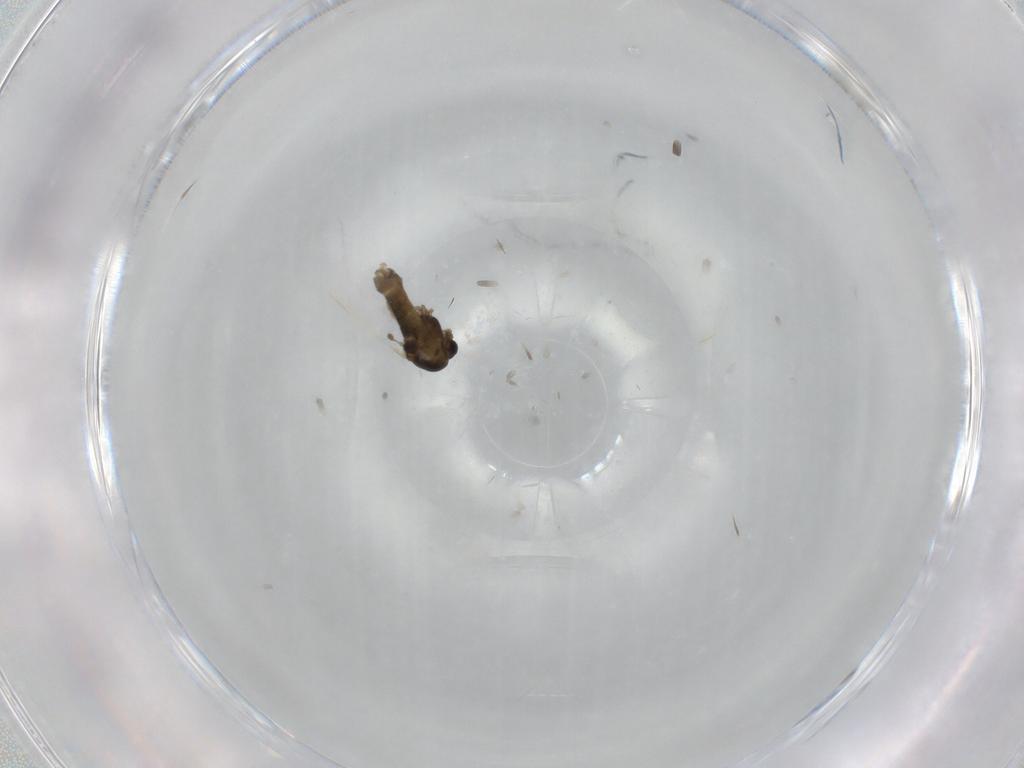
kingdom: Animalia
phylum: Arthropoda
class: Insecta
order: Diptera
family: Chironomidae
